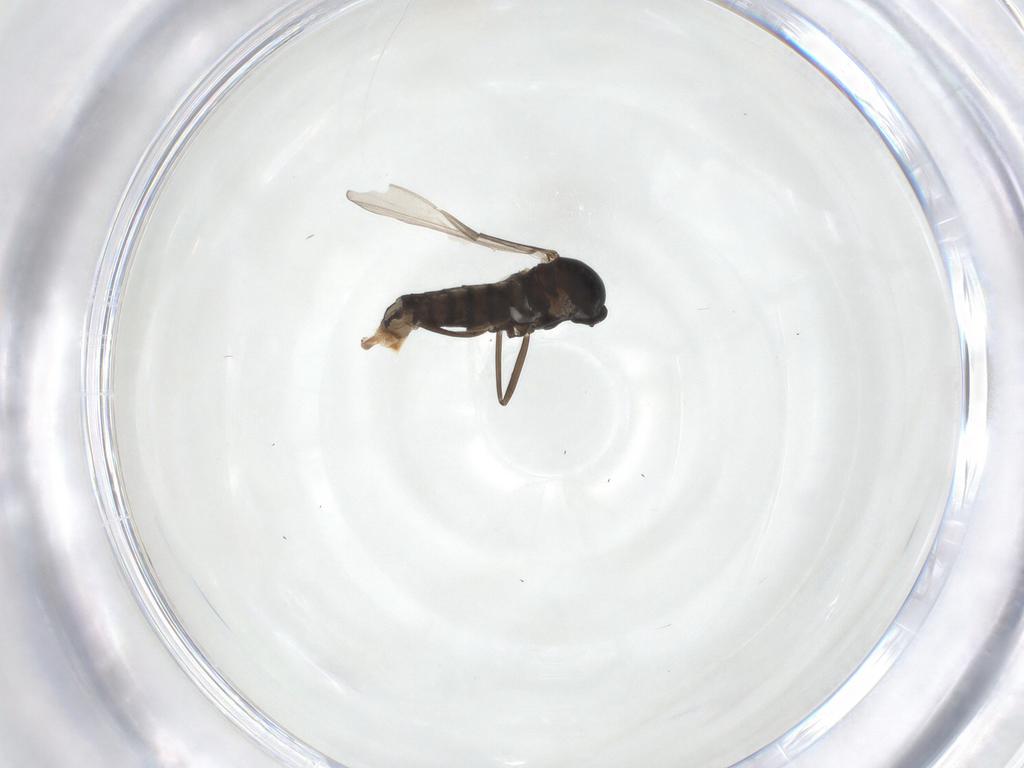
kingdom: Animalia
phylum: Arthropoda
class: Insecta
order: Diptera
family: Cecidomyiidae
